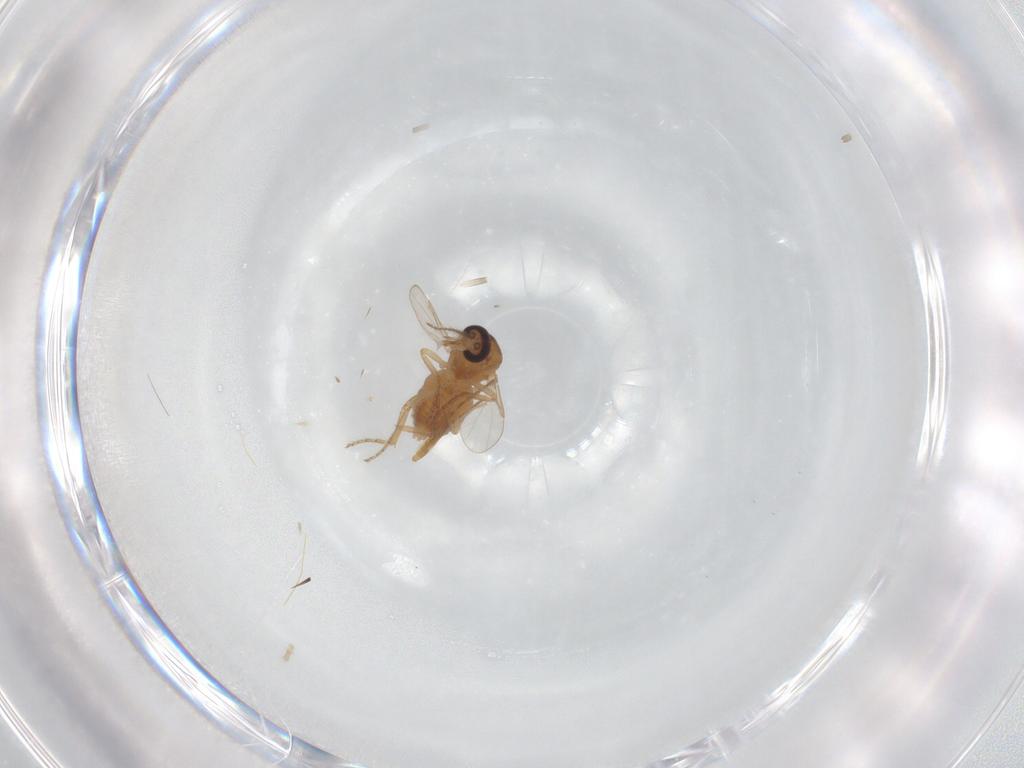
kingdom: Animalia
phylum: Arthropoda
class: Insecta
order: Diptera
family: Ceratopogonidae
